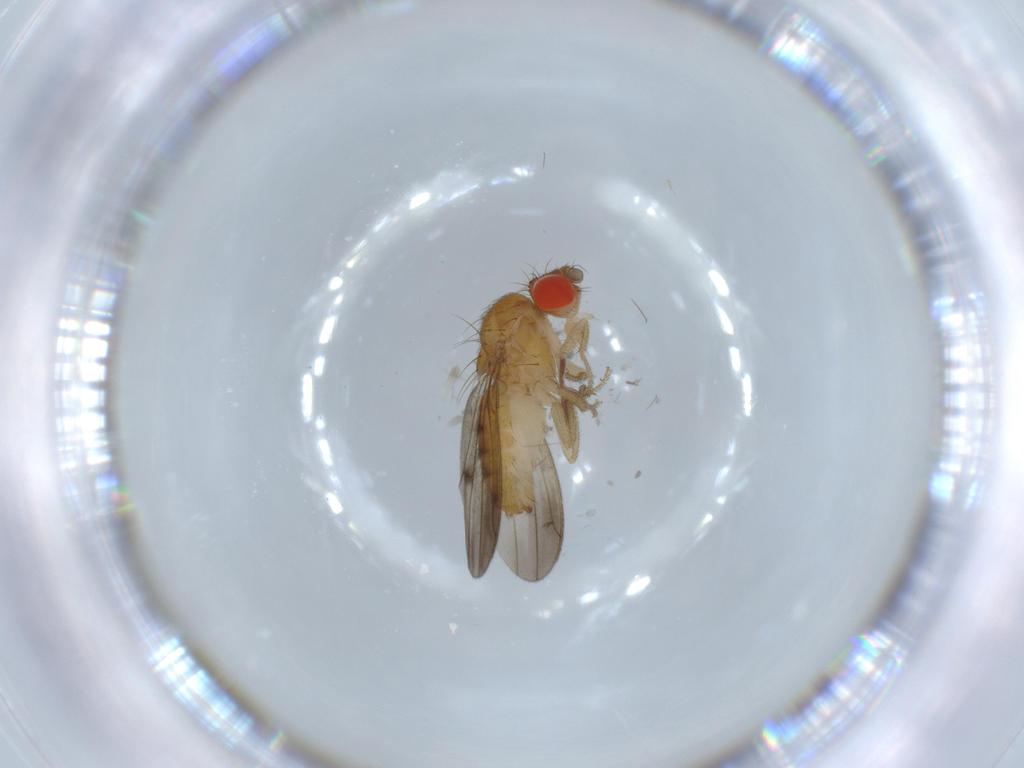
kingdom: Animalia
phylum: Arthropoda
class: Insecta
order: Diptera
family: Drosophilidae
